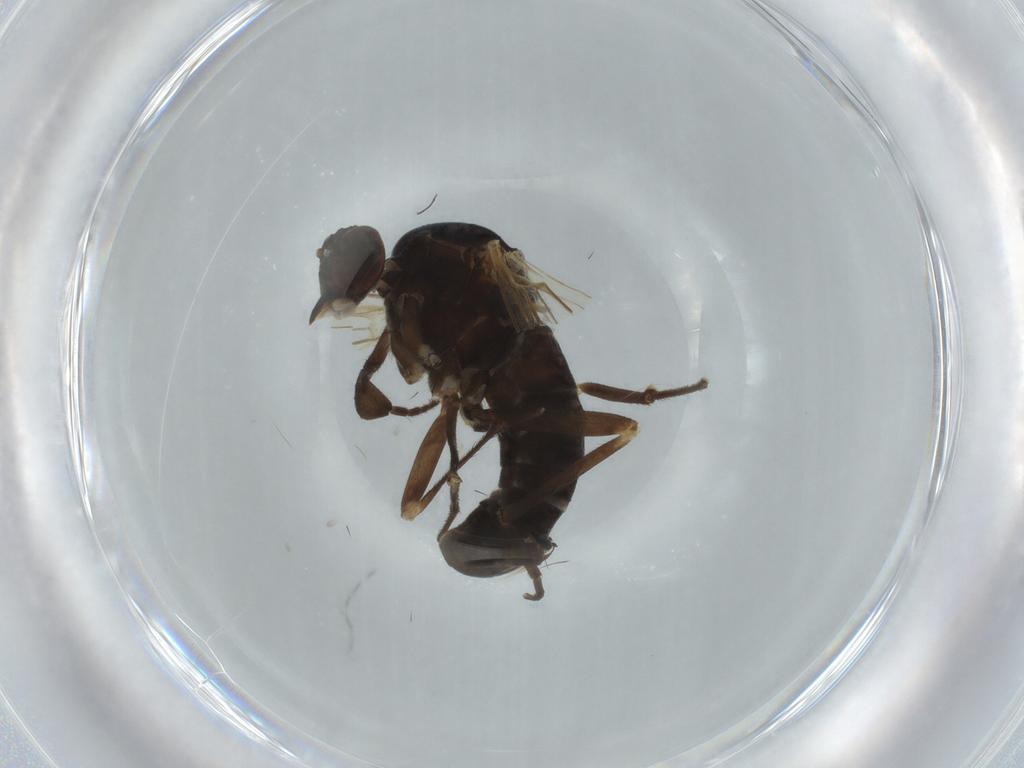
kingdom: Animalia
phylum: Arthropoda
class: Insecta
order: Diptera
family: Empididae
